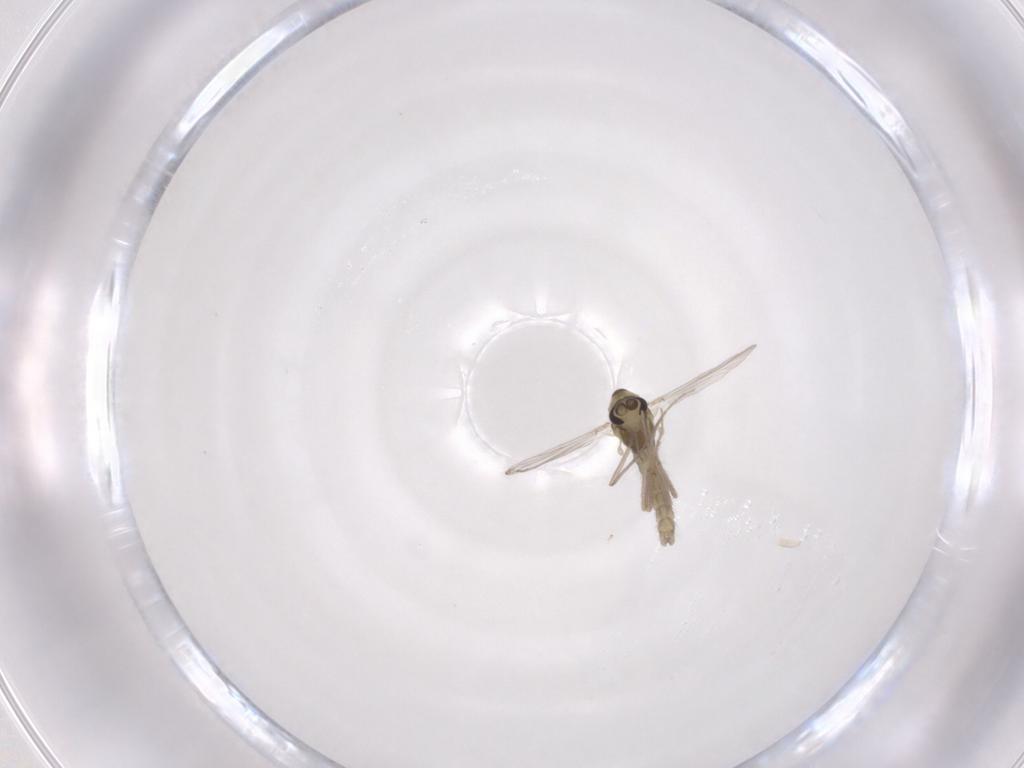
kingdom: Animalia
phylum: Arthropoda
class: Insecta
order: Diptera
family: Chironomidae
